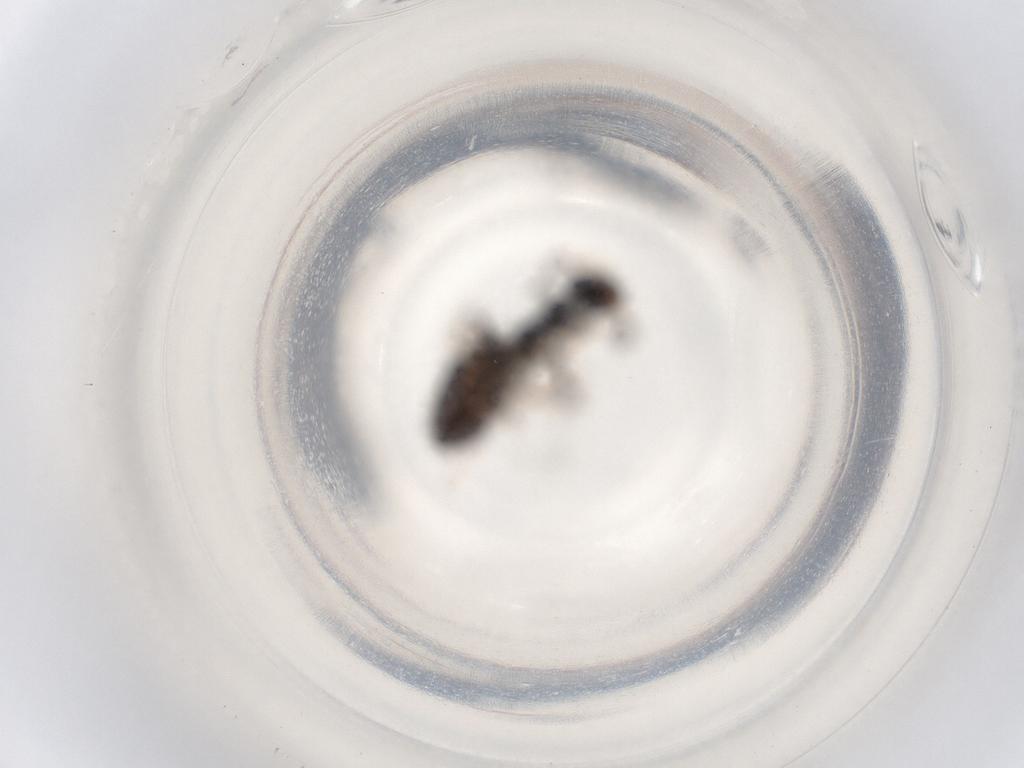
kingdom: Animalia
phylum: Arthropoda
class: Insecta
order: Hymenoptera
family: Formicidae
